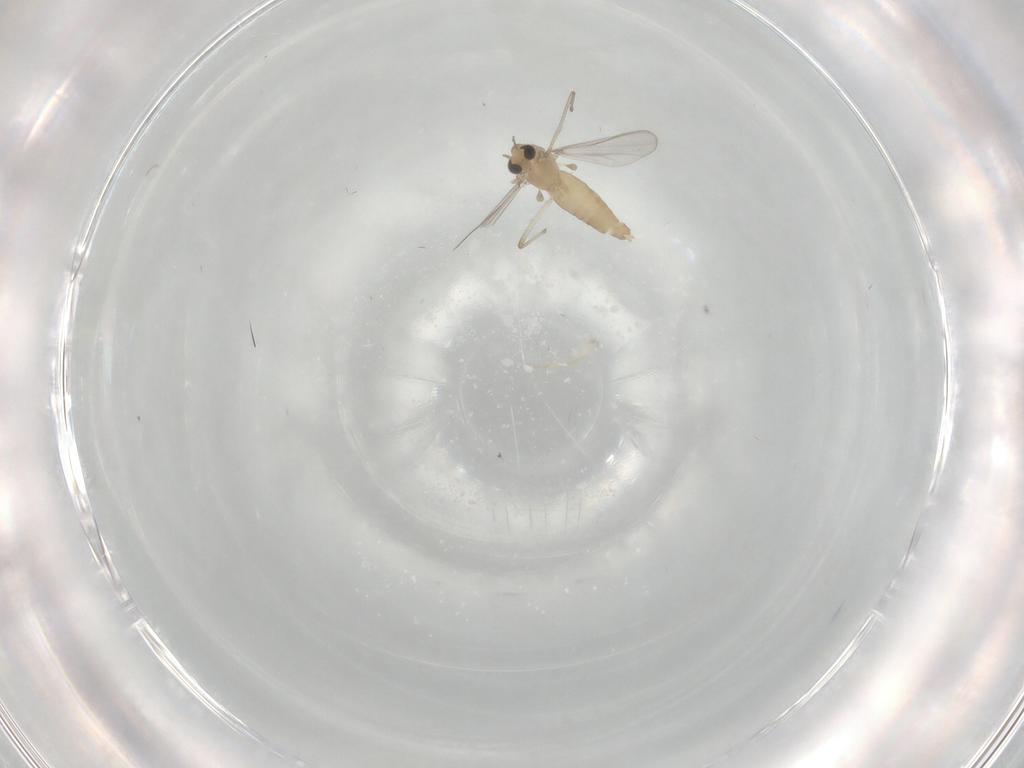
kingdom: Animalia
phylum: Arthropoda
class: Insecta
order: Diptera
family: Chironomidae
